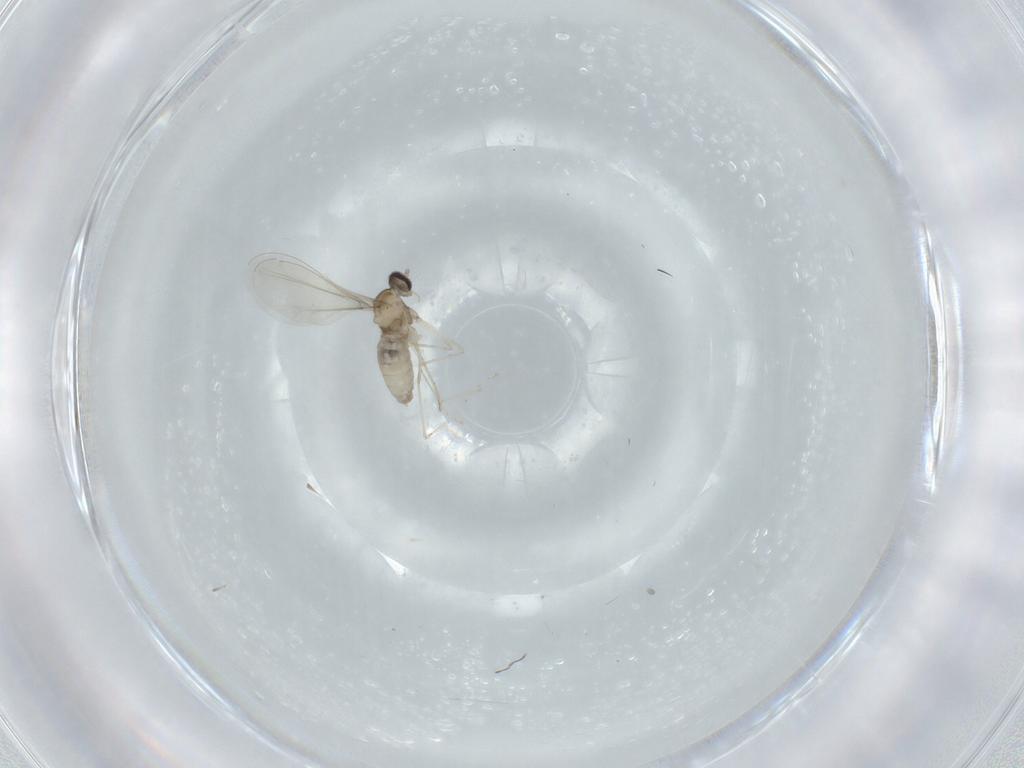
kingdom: Animalia
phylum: Arthropoda
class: Insecta
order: Diptera
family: Cecidomyiidae
